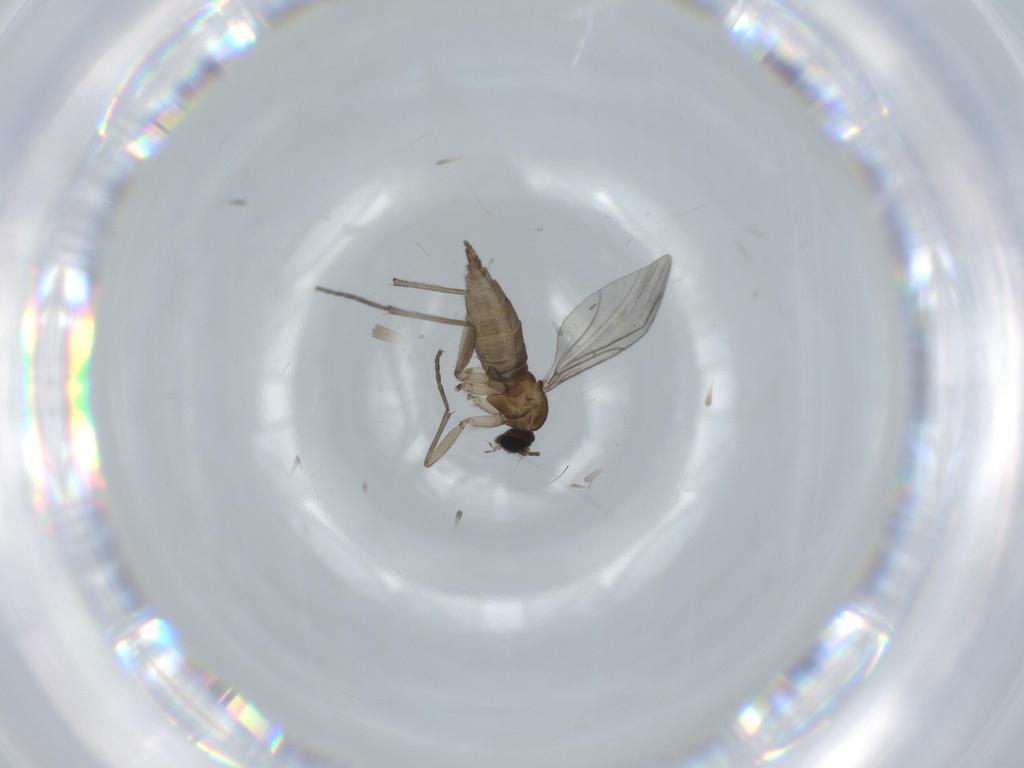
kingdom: Animalia
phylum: Arthropoda
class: Insecta
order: Diptera
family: Sciaridae
